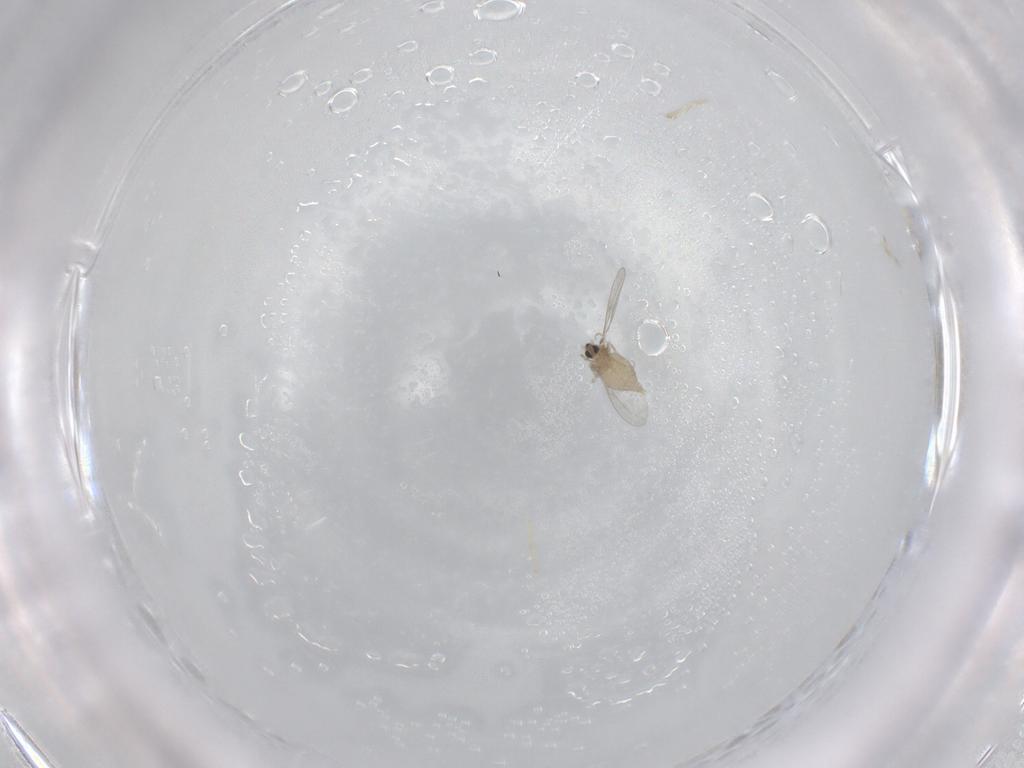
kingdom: Animalia
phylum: Arthropoda
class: Insecta
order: Diptera
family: Cecidomyiidae
